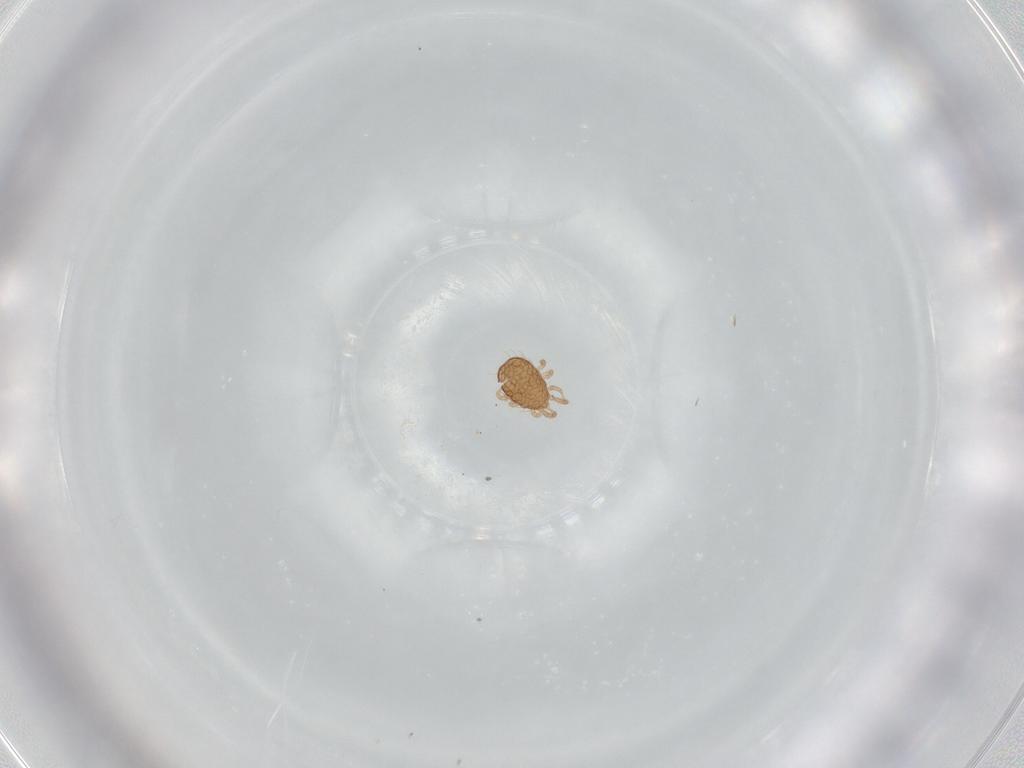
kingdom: Animalia
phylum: Arthropoda
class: Arachnida
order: Mesostigmata
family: Ameroseiidae
